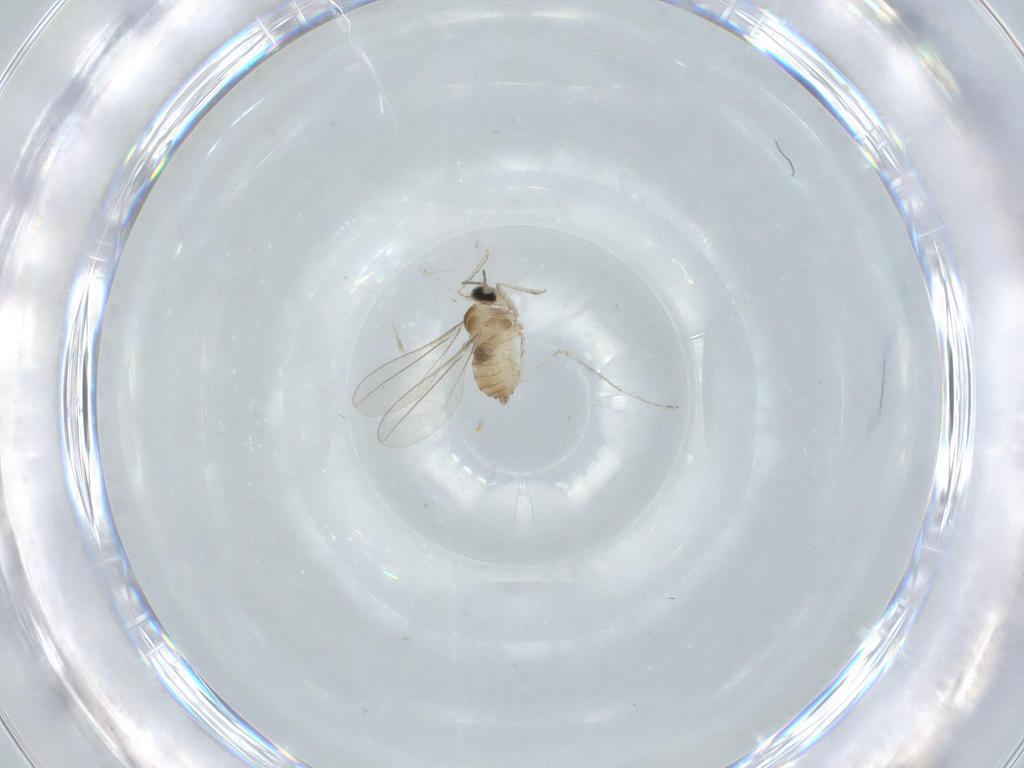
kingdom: Animalia
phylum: Arthropoda
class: Insecta
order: Diptera
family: Cecidomyiidae
